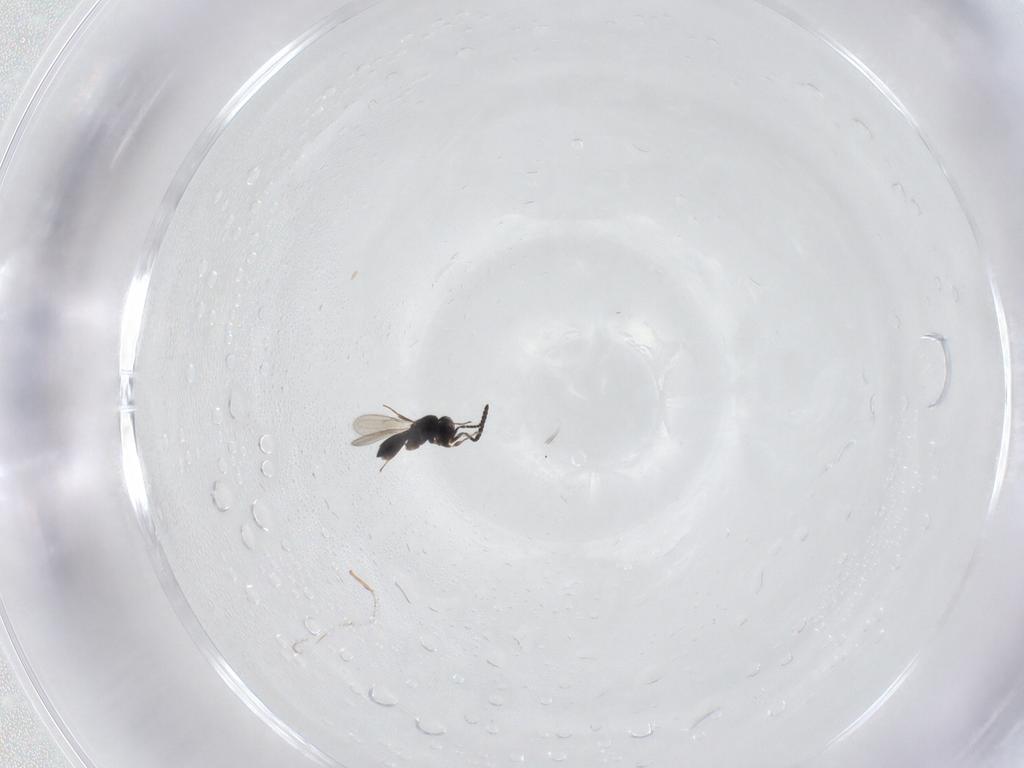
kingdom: Animalia
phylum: Arthropoda
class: Insecta
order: Hymenoptera
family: Scelionidae
